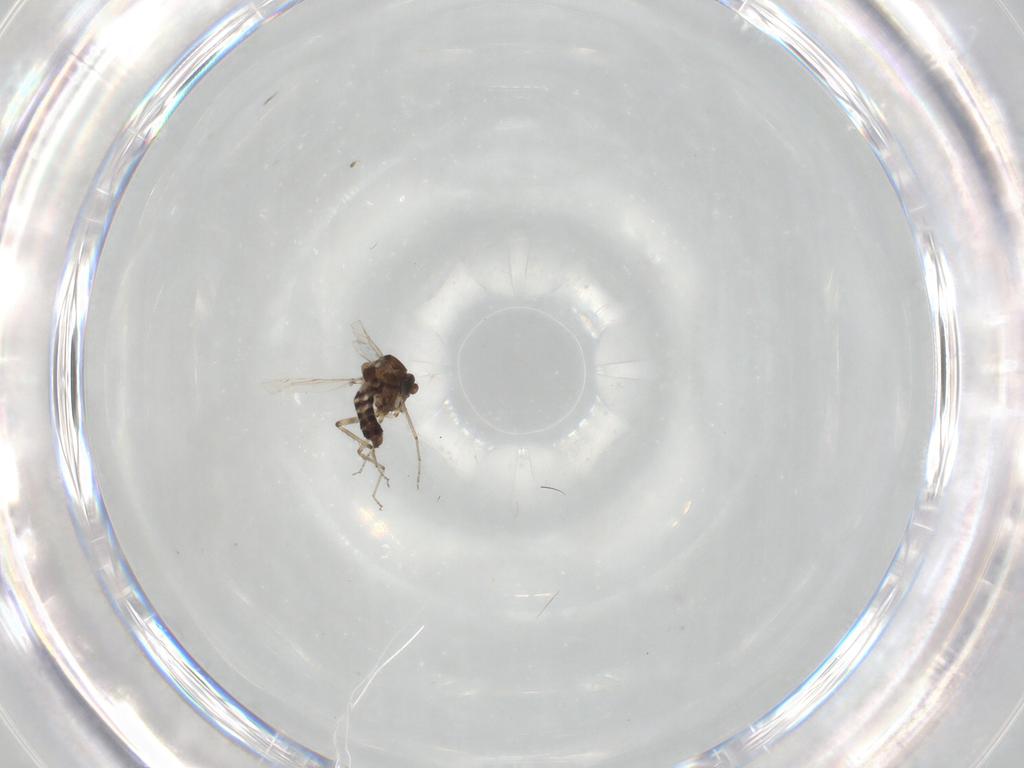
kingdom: Animalia
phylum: Arthropoda
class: Insecta
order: Diptera
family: Ceratopogonidae
